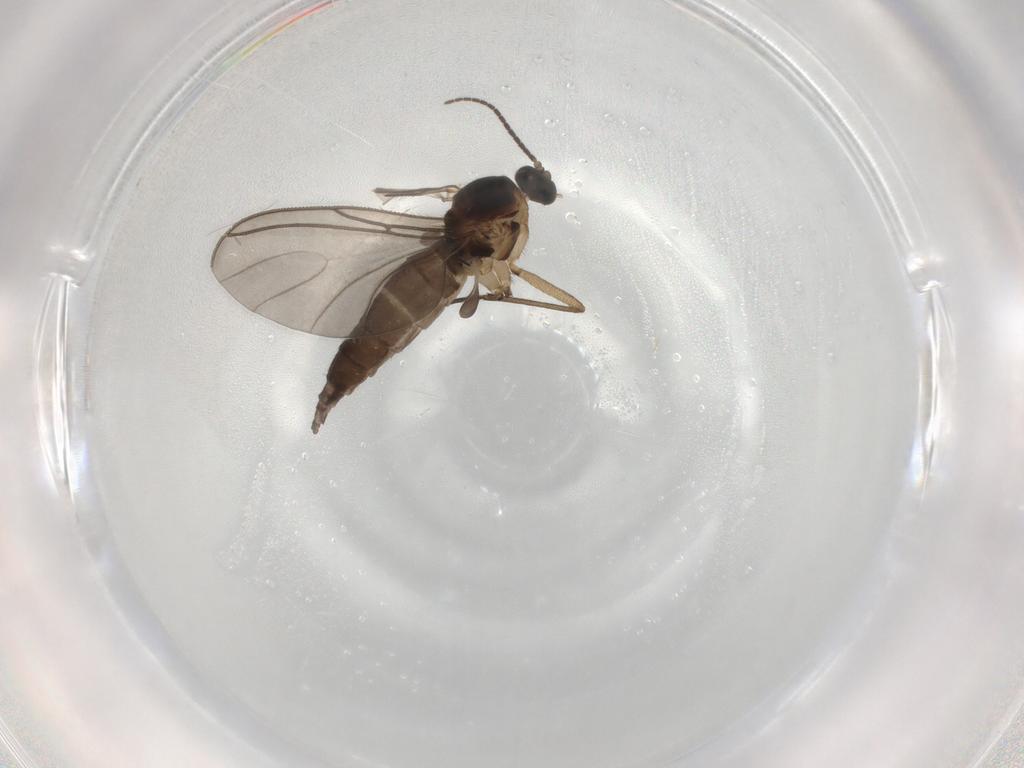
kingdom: Animalia
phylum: Arthropoda
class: Insecta
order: Diptera
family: Sciaridae
